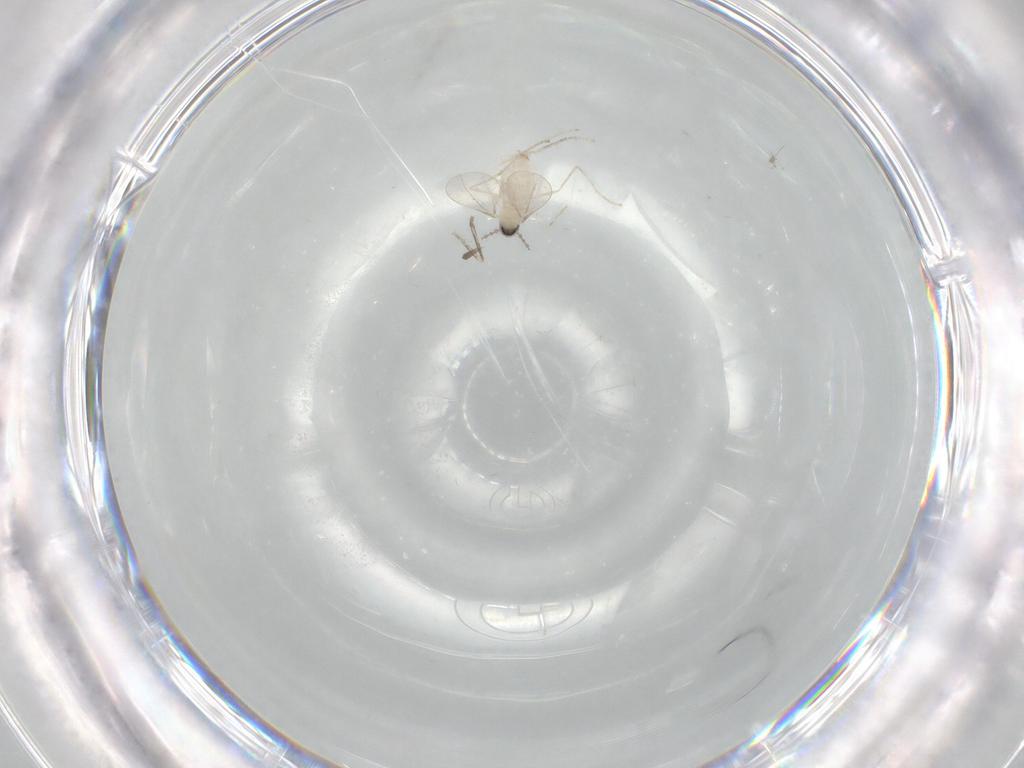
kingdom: Animalia
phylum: Arthropoda
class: Insecta
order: Diptera
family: Cecidomyiidae
